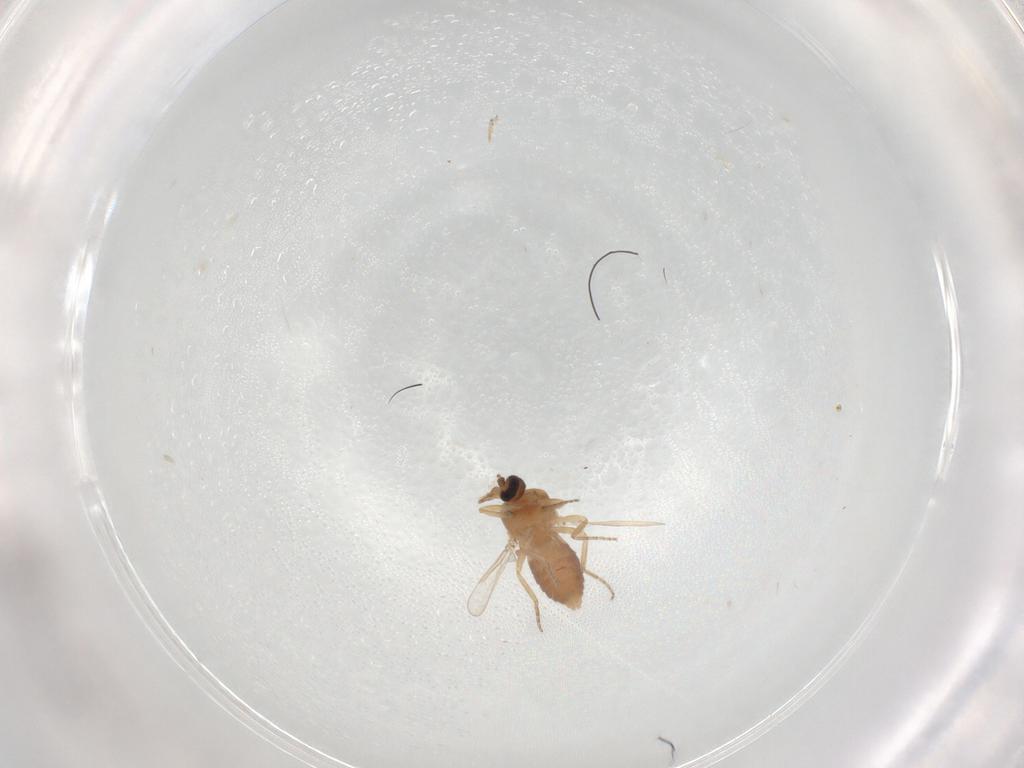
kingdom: Animalia
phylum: Arthropoda
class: Insecta
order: Diptera
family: Ceratopogonidae
